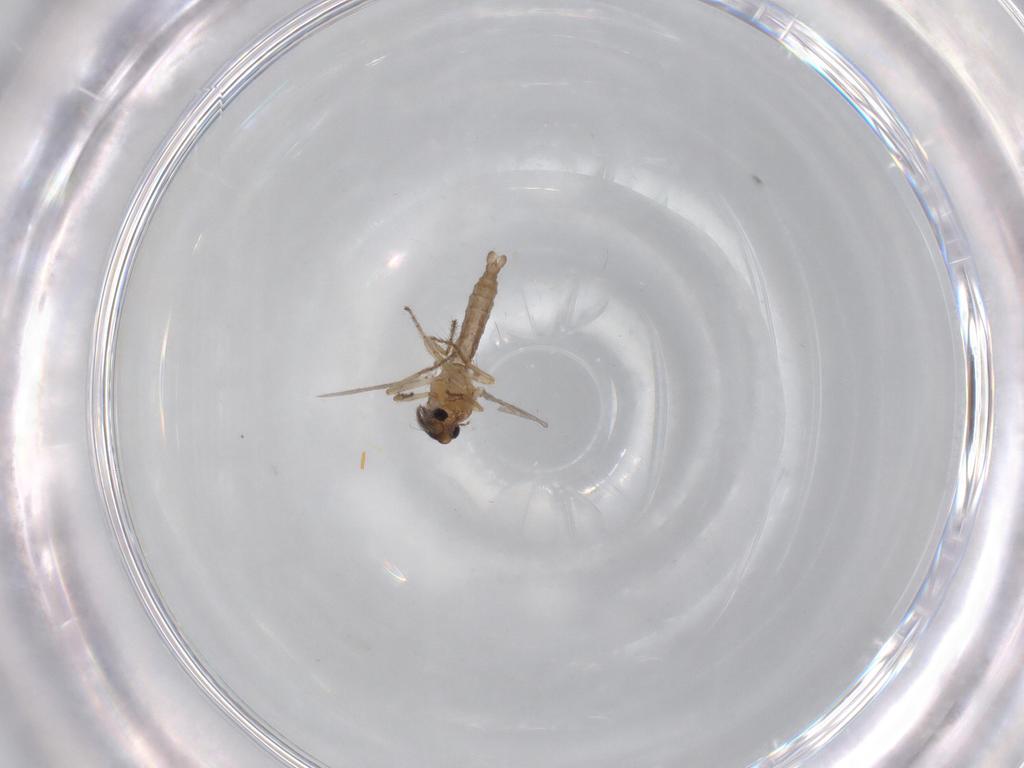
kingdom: Animalia
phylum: Arthropoda
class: Insecta
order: Diptera
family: Ceratopogonidae
